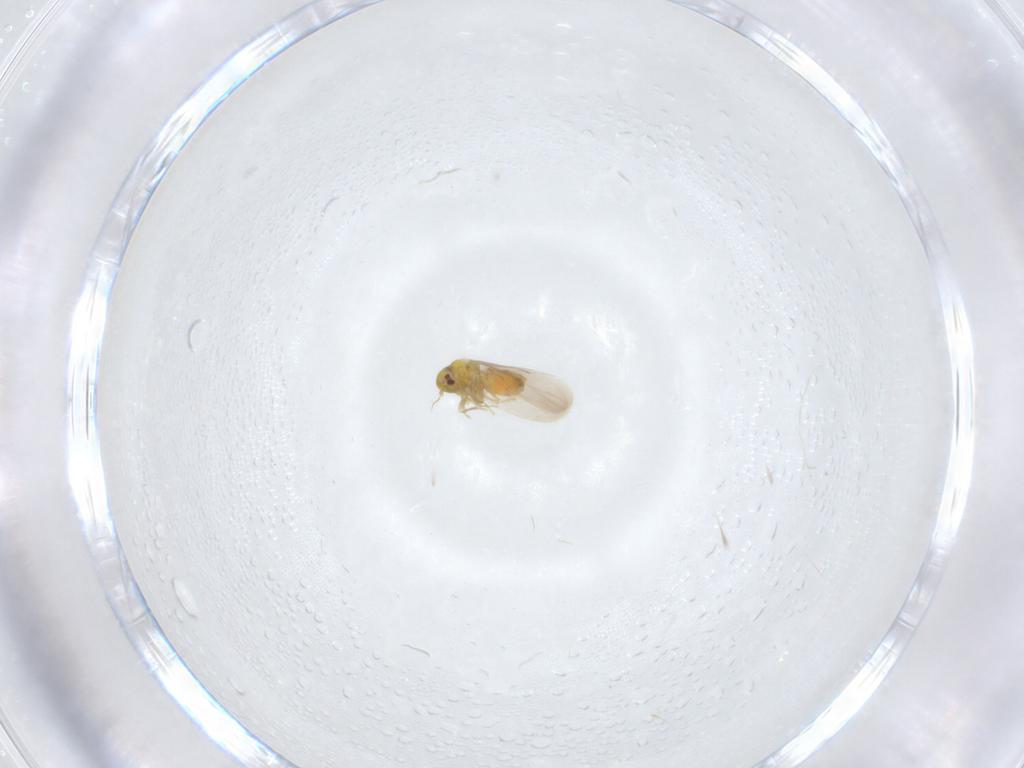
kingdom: Animalia
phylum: Arthropoda
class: Insecta
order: Hemiptera
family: Aleyrodidae
